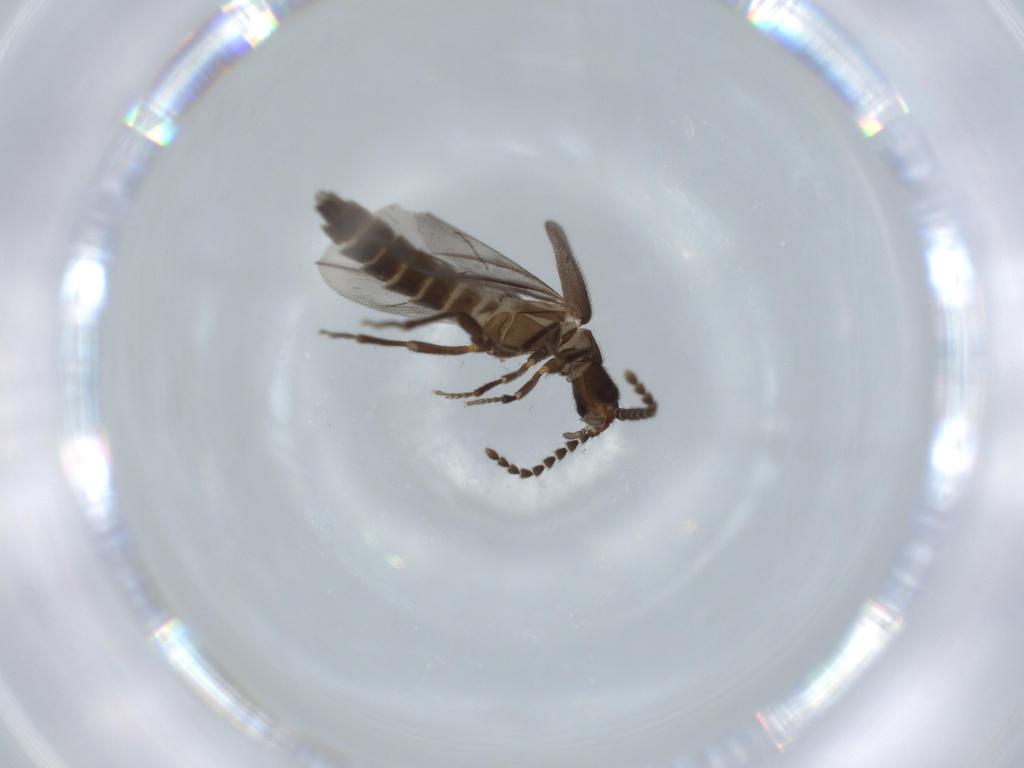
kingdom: Animalia
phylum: Arthropoda
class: Insecta
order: Coleoptera
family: Omethidae
